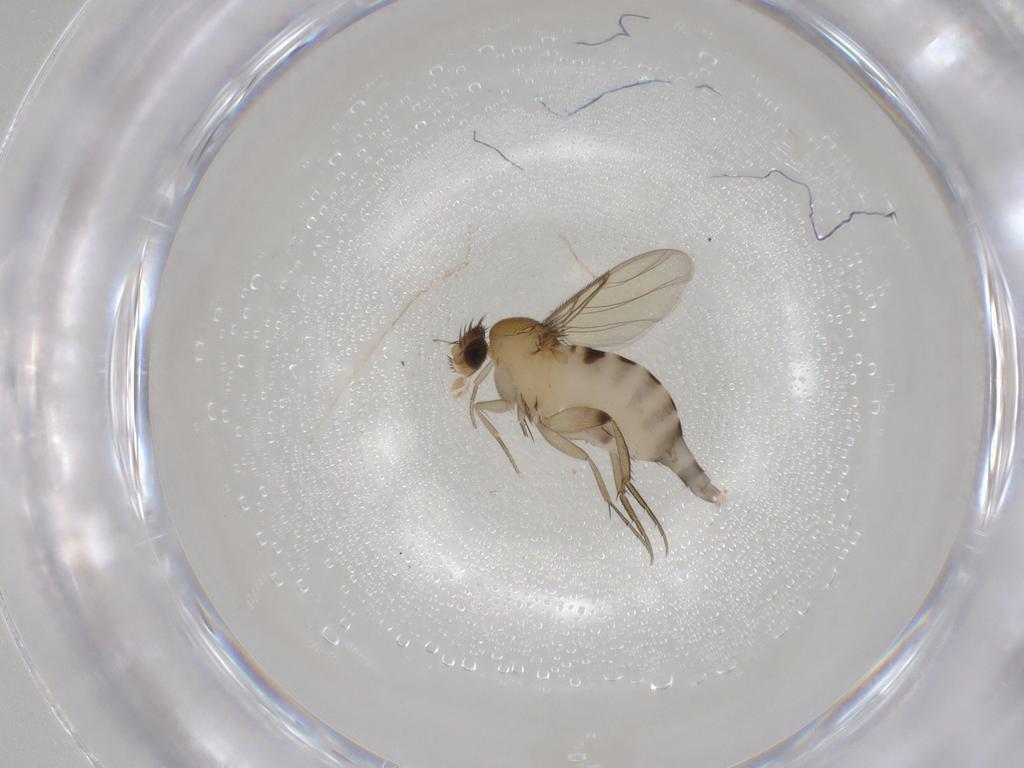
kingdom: Animalia
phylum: Arthropoda
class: Insecta
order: Diptera
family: Phoridae
